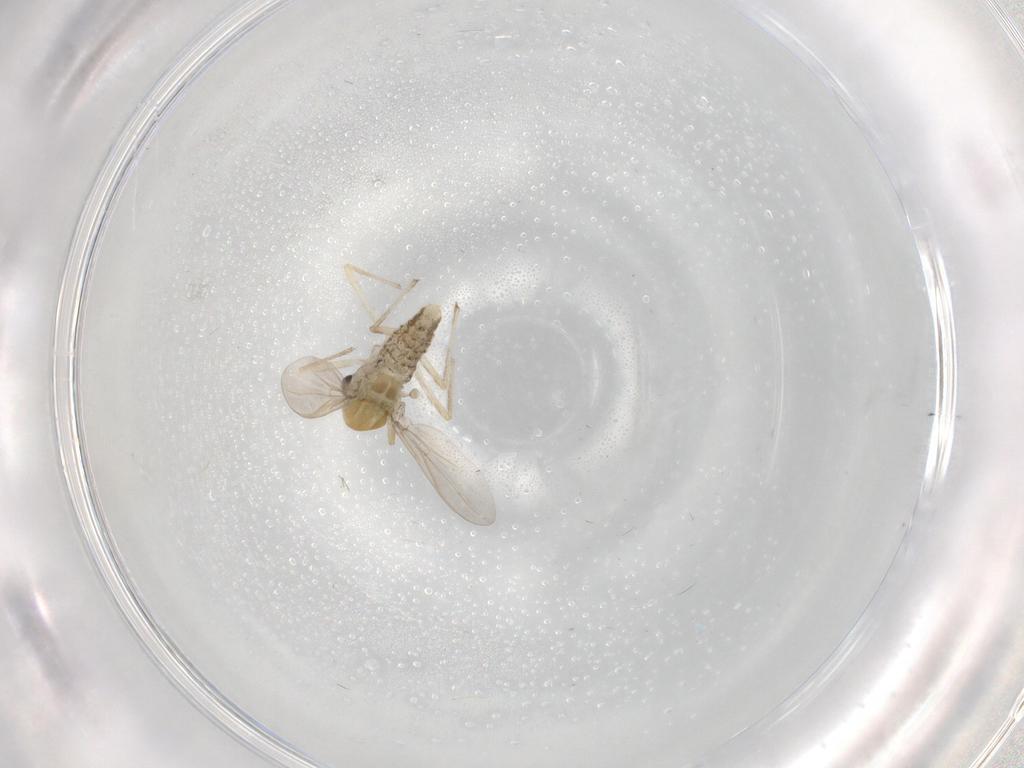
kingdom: Animalia
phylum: Arthropoda
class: Insecta
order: Diptera
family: Chironomidae
